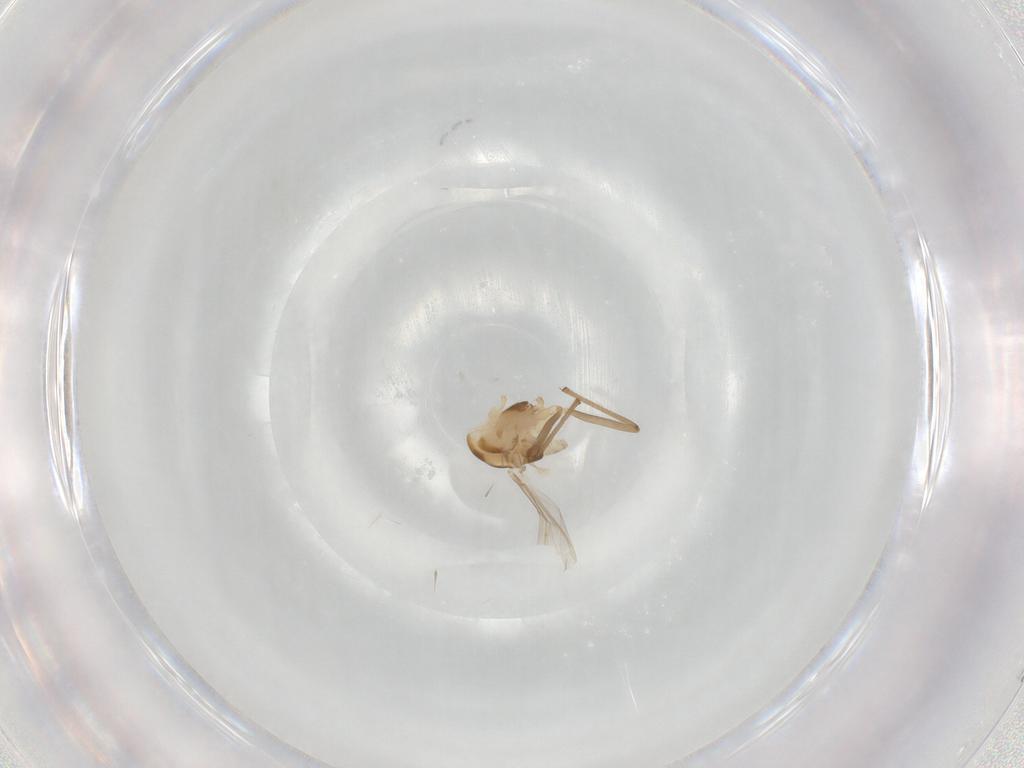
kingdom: Animalia
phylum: Arthropoda
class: Insecta
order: Diptera
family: Chironomidae
